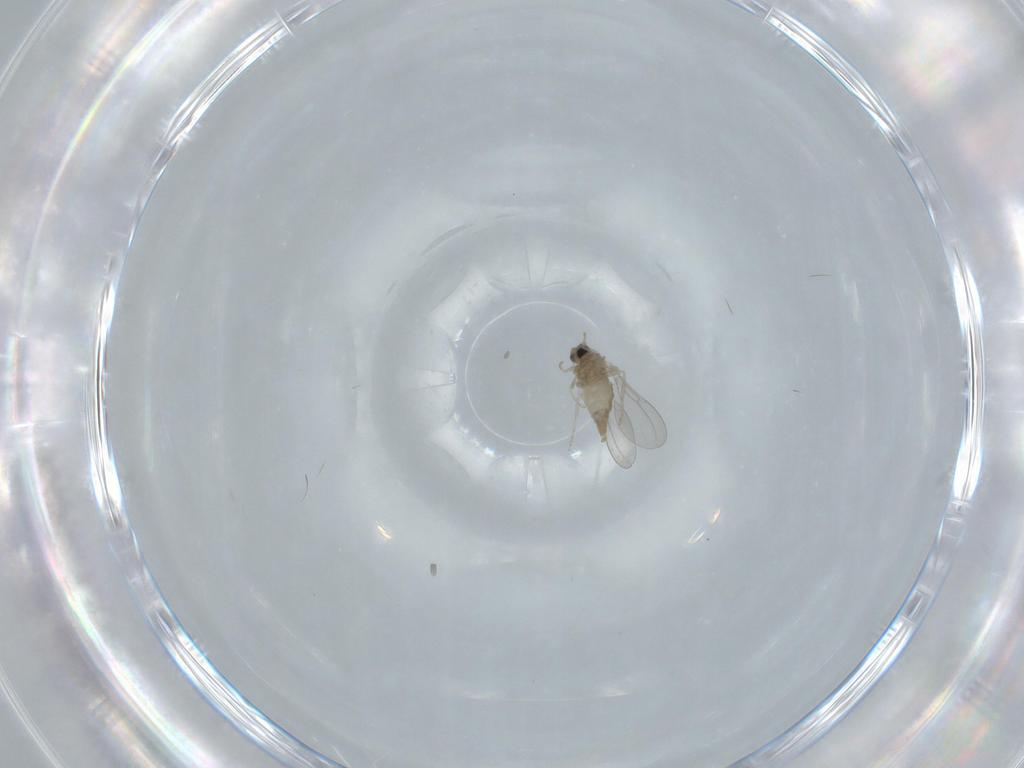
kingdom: Animalia
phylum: Arthropoda
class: Insecta
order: Diptera
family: Cecidomyiidae
